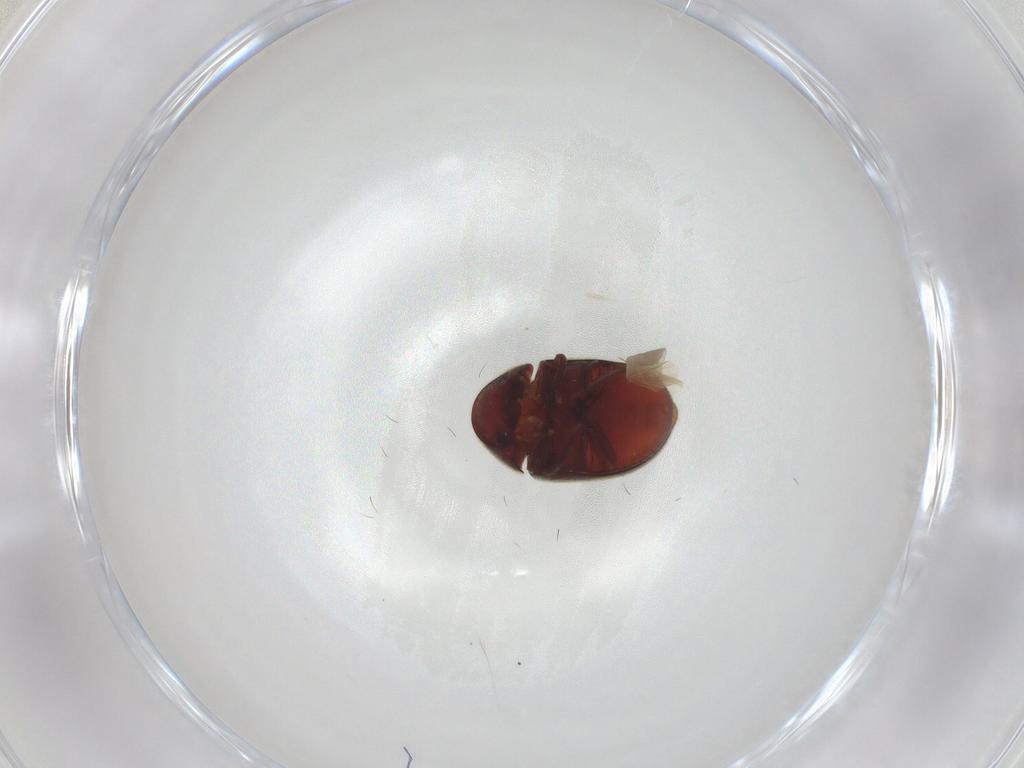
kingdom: Animalia
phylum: Arthropoda
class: Insecta
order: Coleoptera
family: Ptinidae
